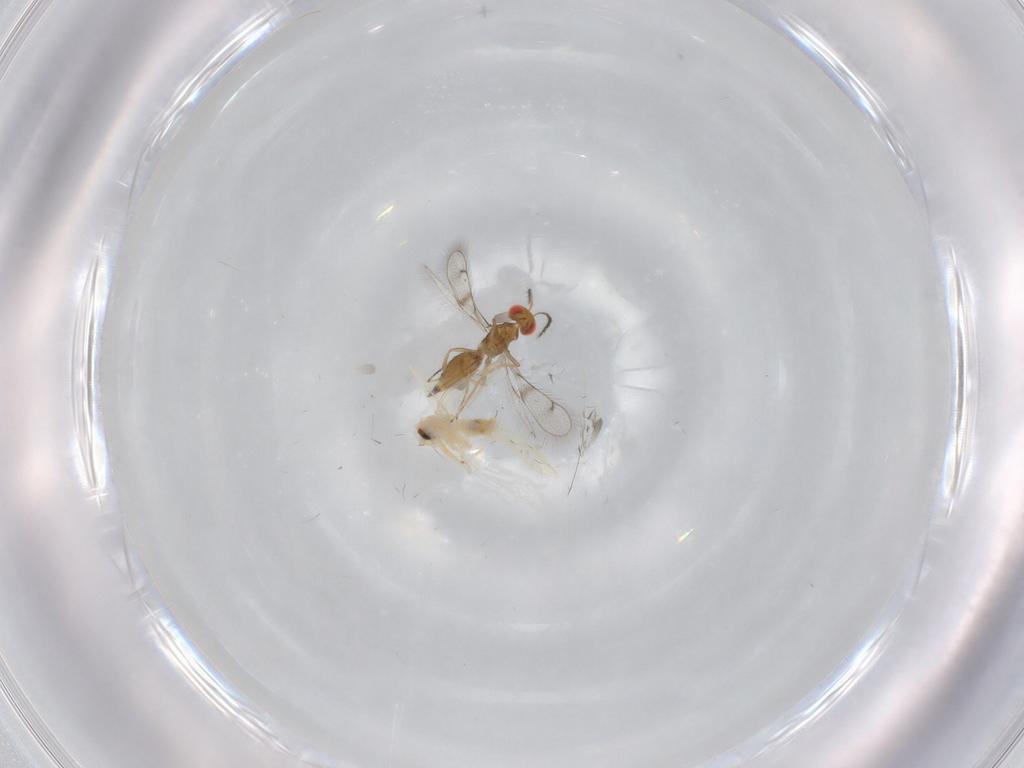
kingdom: Animalia
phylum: Arthropoda
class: Insecta
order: Hymenoptera
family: Eulophidae
